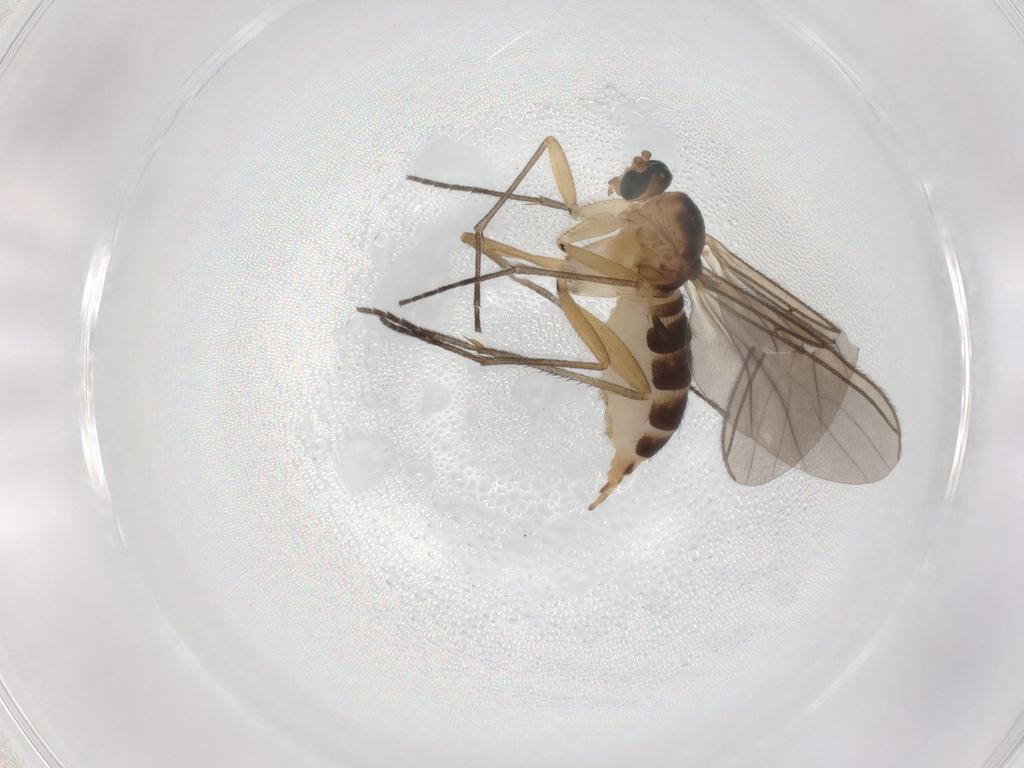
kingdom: Animalia
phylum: Arthropoda
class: Insecta
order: Diptera
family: Sciaridae
